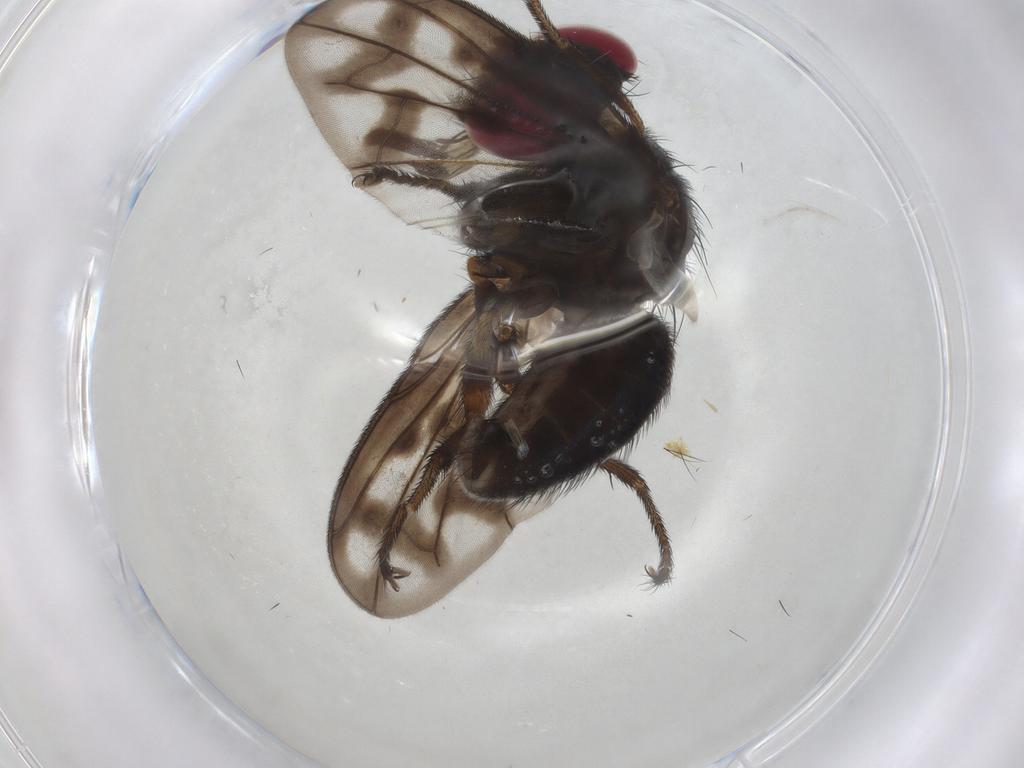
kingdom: Animalia
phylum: Arthropoda
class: Insecta
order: Diptera
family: Tachinidae
